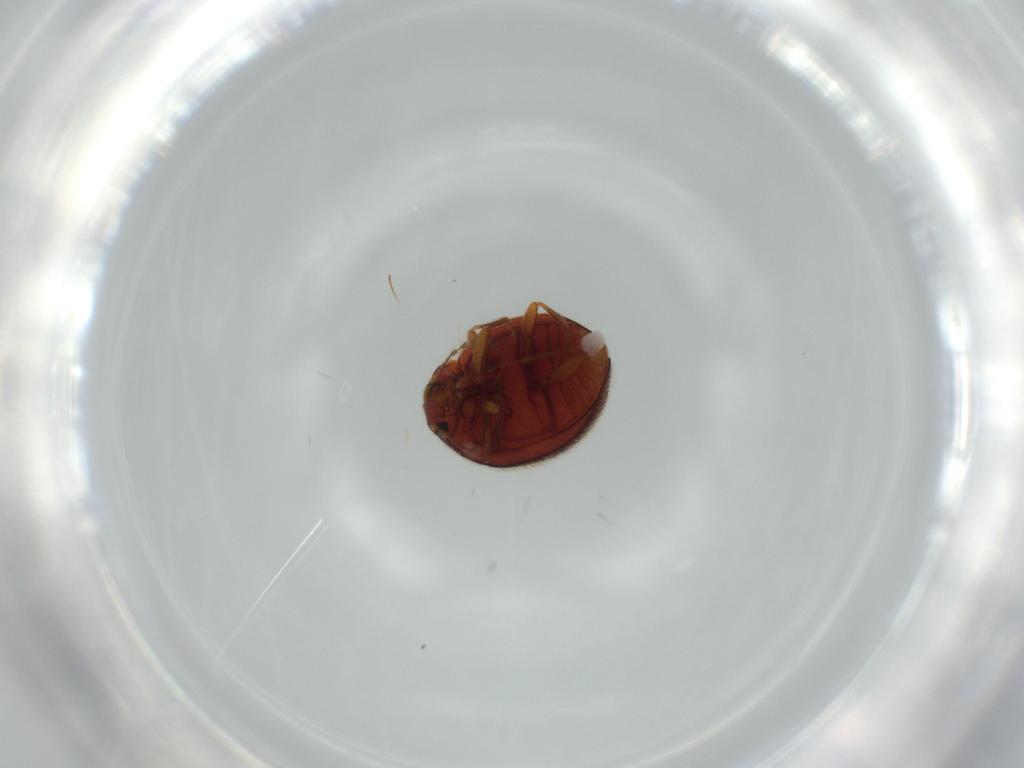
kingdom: Animalia
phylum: Arthropoda
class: Insecta
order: Coleoptera
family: Anamorphidae
